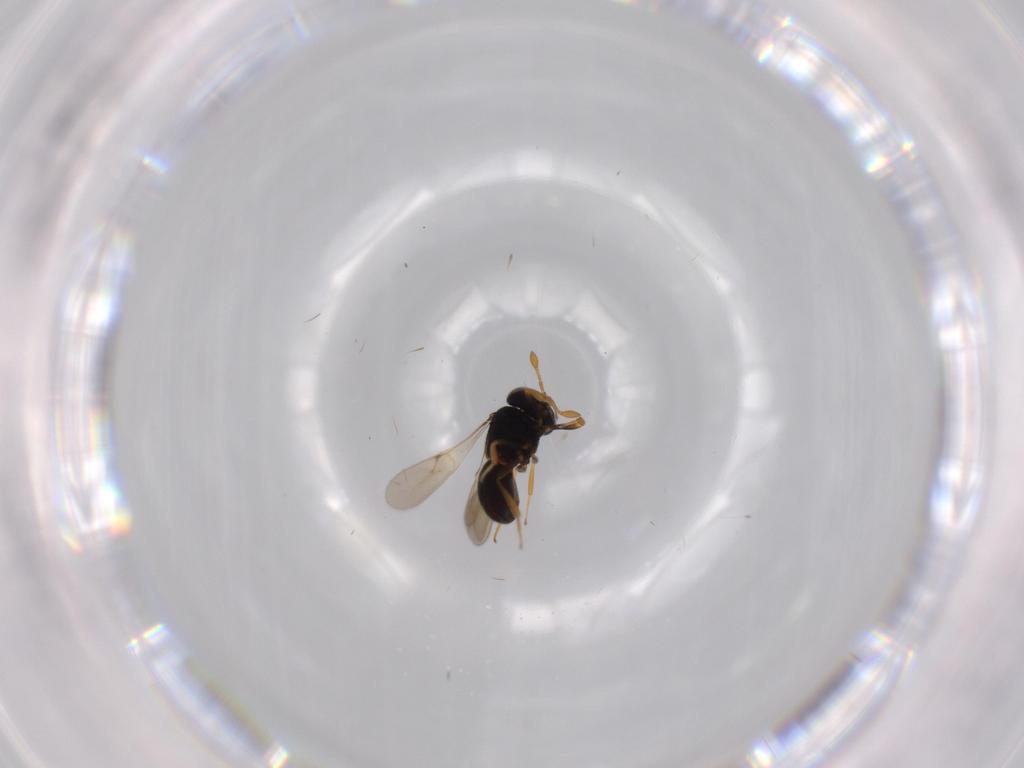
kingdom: Animalia
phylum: Arthropoda
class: Insecta
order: Hymenoptera
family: Scelionidae
